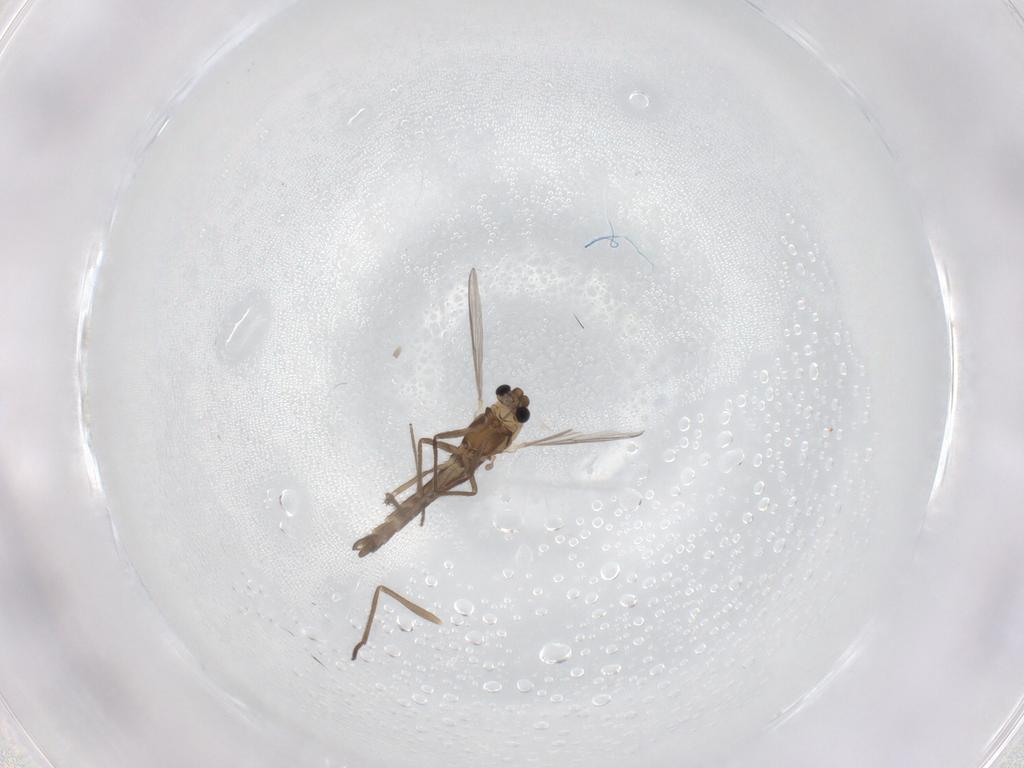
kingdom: Animalia
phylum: Arthropoda
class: Insecta
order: Diptera
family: Chironomidae
